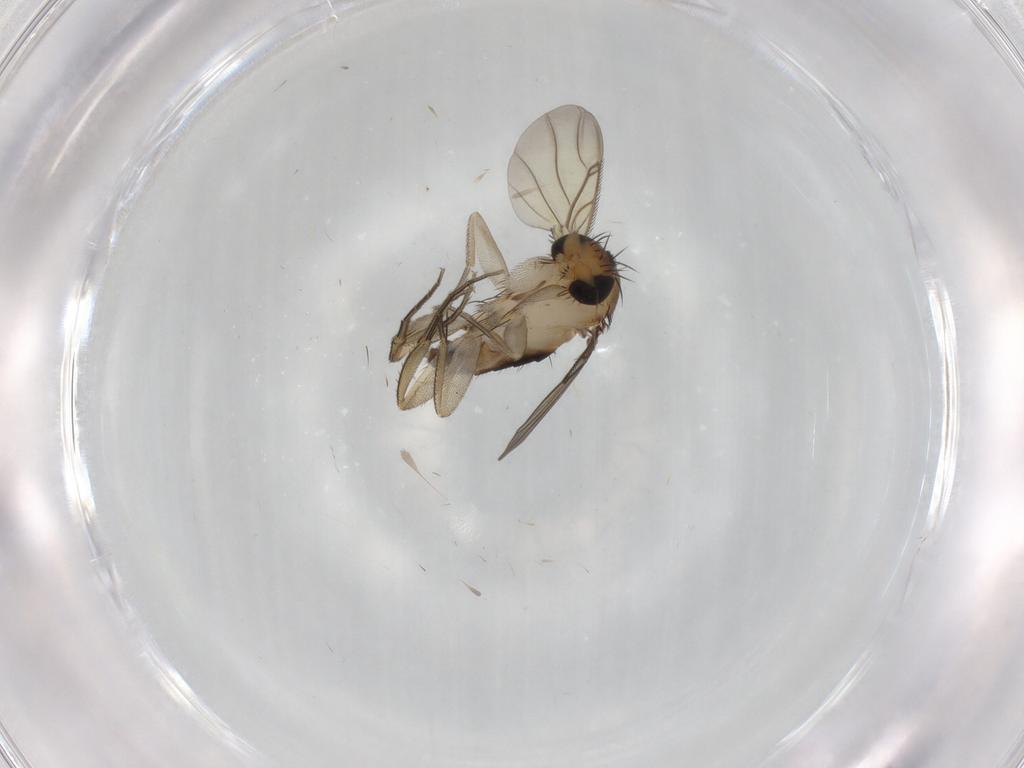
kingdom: Animalia
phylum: Arthropoda
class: Insecta
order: Diptera
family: Phoridae
